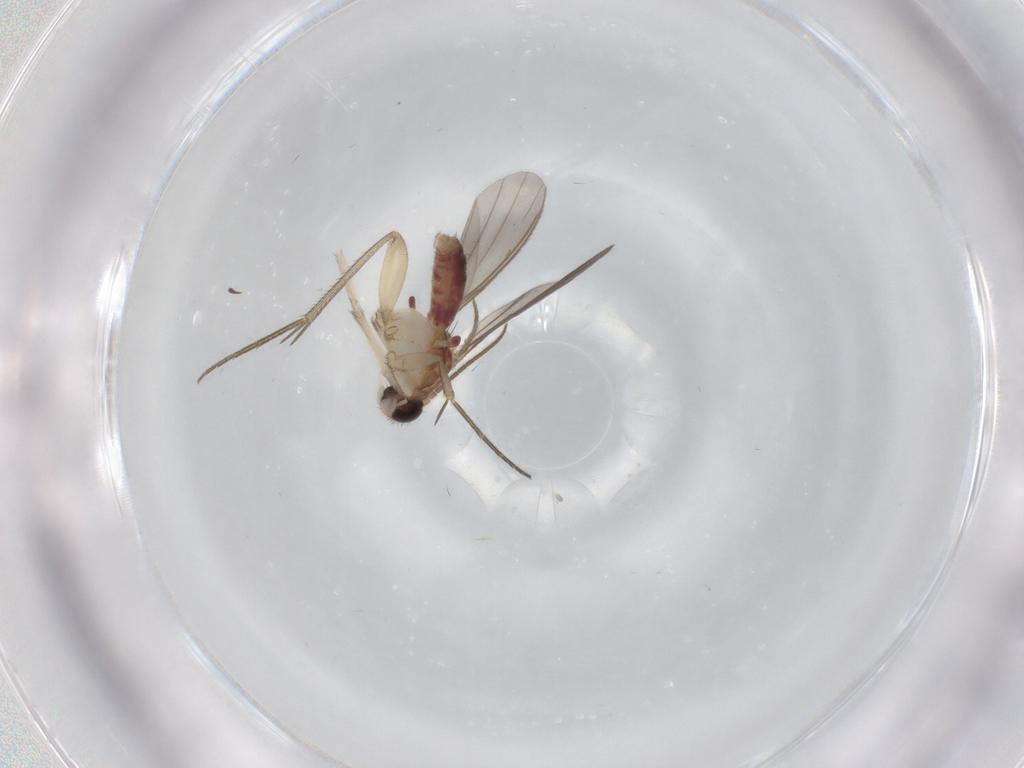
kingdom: Animalia
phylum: Arthropoda
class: Insecta
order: Diptera
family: Mycetophilidae
